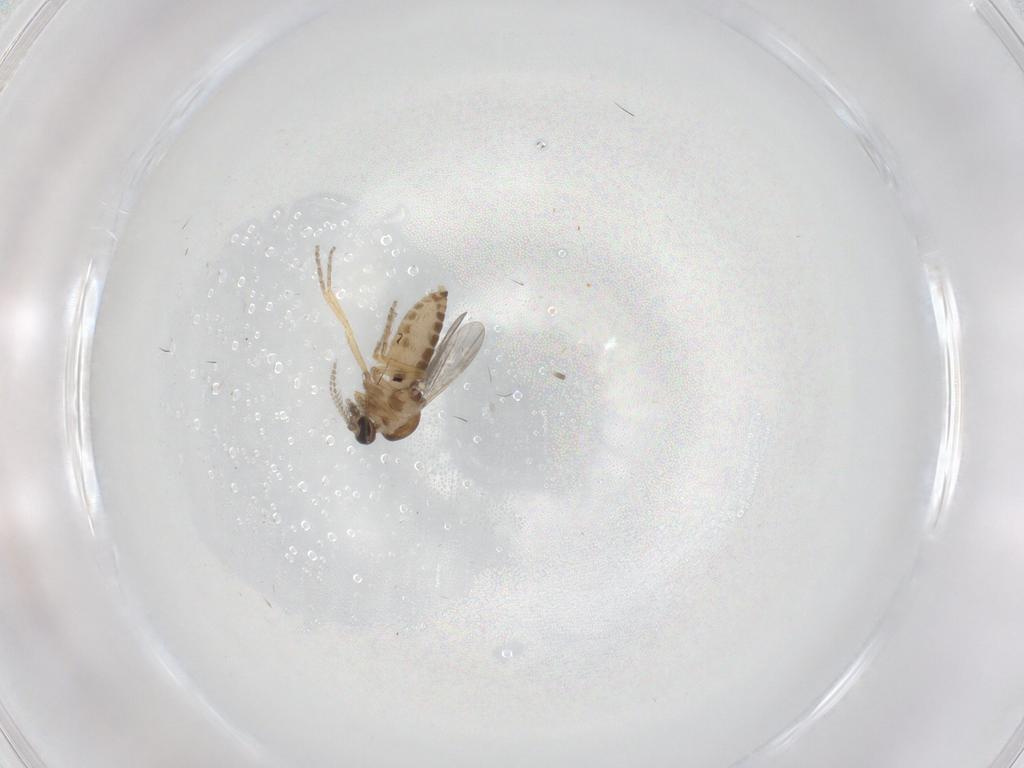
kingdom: Animalia
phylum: Arthropoda
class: Insecta
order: Diptera
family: Ceratopogonidae
